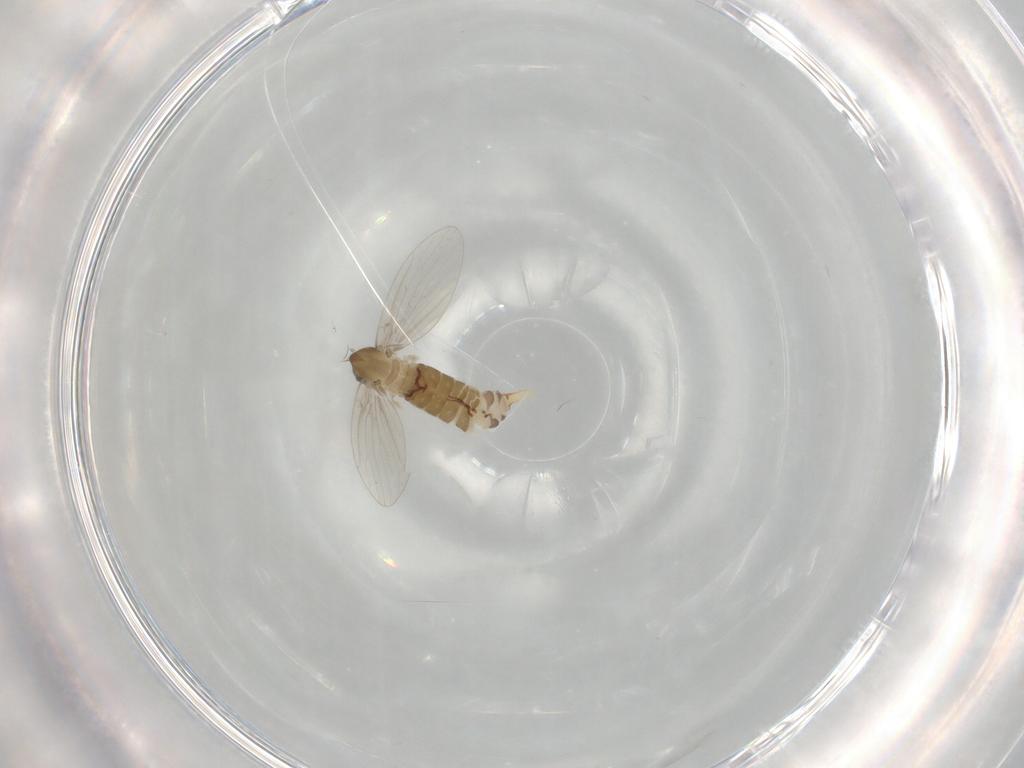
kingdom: Animalia
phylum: Arthropoda
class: Insecta
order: Diptera
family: Psychodidae
